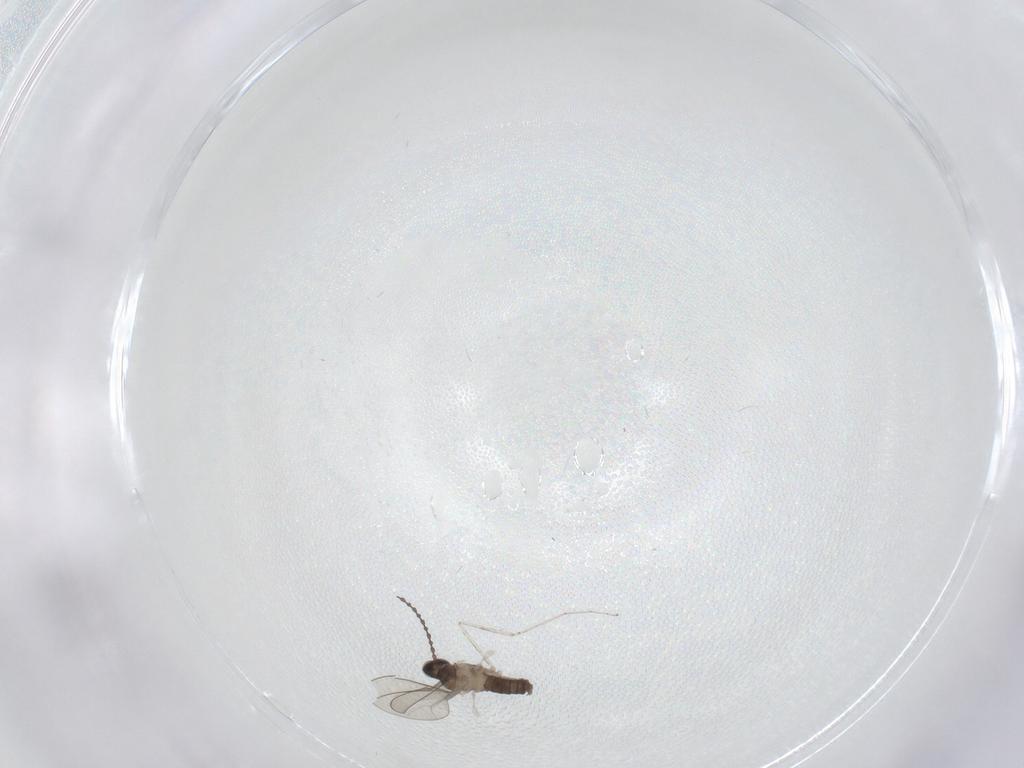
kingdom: Animalia
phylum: Arthropoda
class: Insecta
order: Diptera
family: Cecidomyiidae
